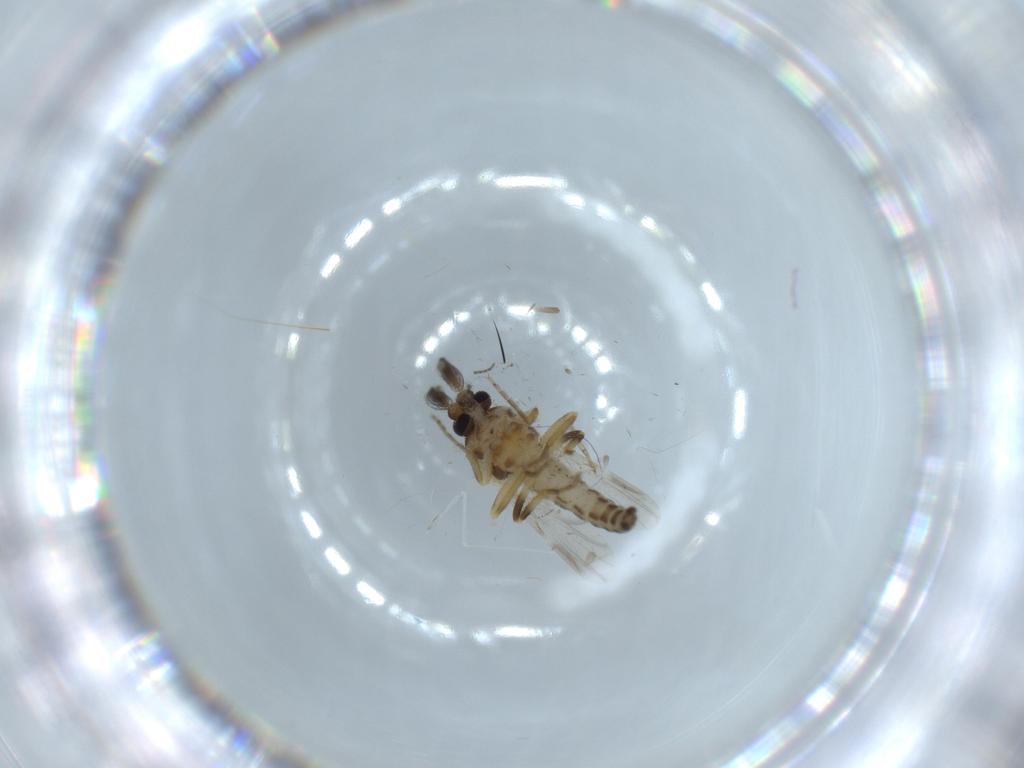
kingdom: Animalia
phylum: Arthropoda
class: Insecta
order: Diptera
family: Ceratopogonidae
